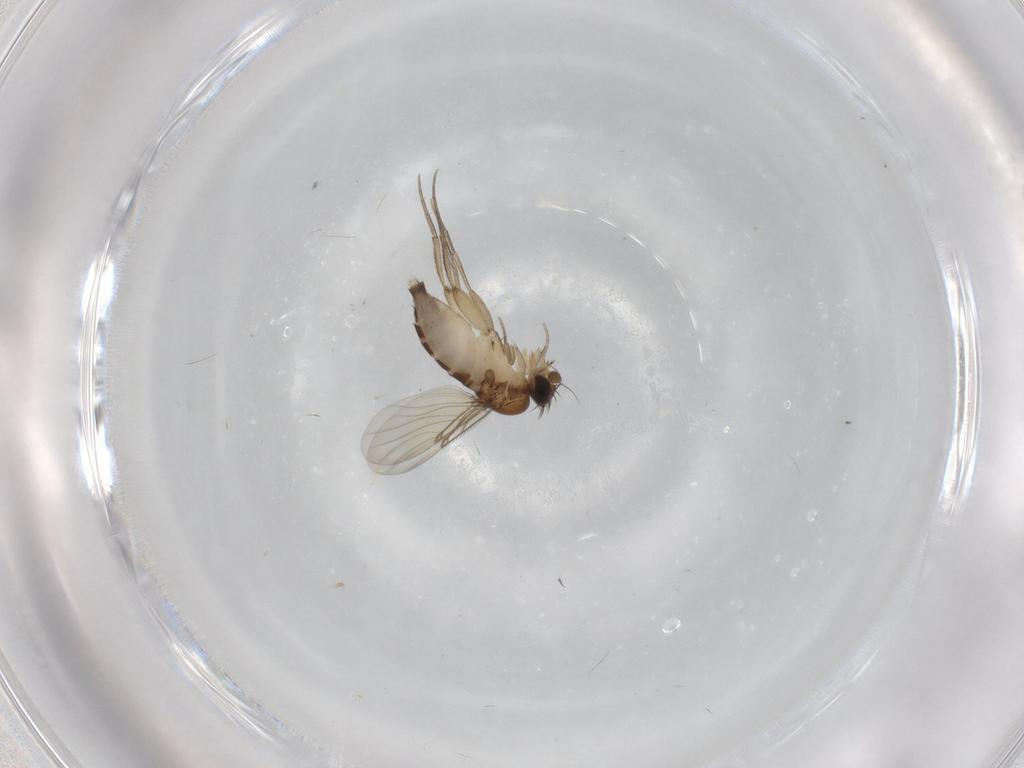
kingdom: Animalia
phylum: Arthropoda
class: Insecta
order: Diptera
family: Phoridae
